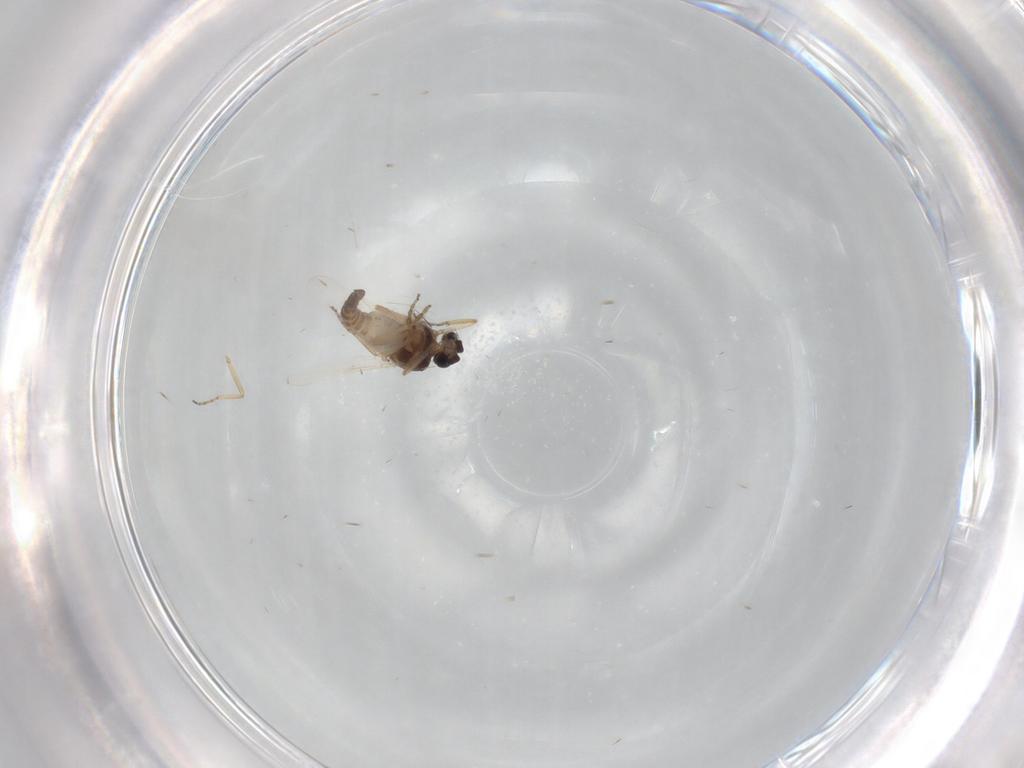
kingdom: Animalia
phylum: Arthropoda
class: Insecta
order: Diptera
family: Ceratopogonidae
